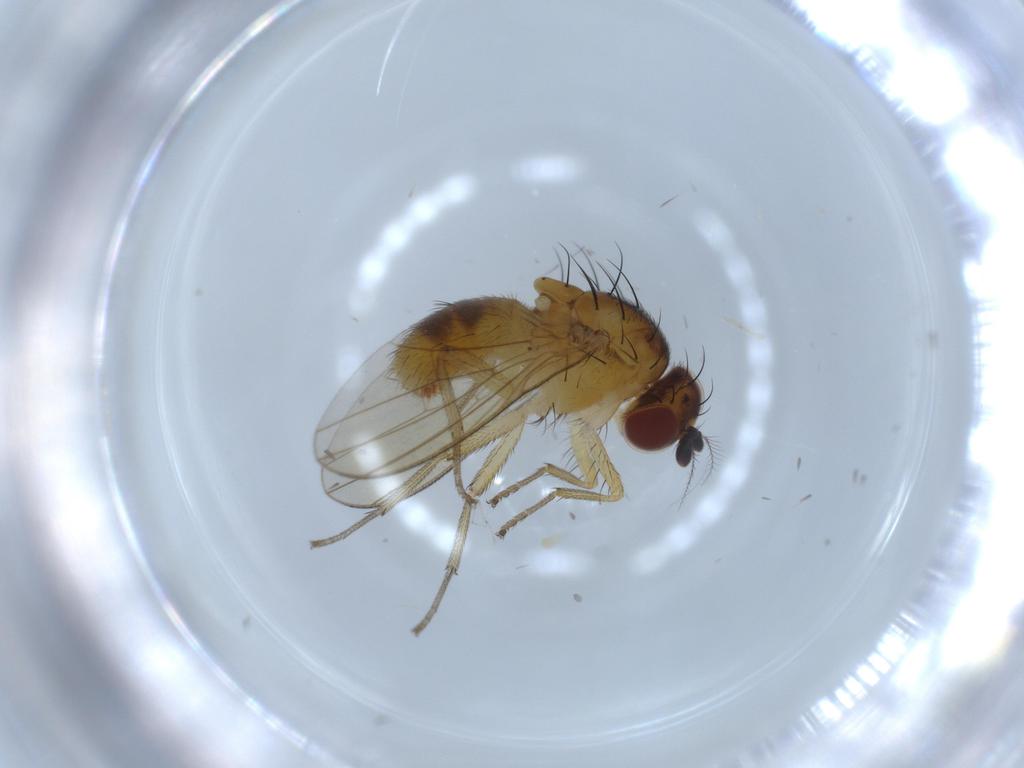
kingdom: Animalia
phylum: Arthropoda
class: Insecta
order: Diptera
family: Lauxaniidae
